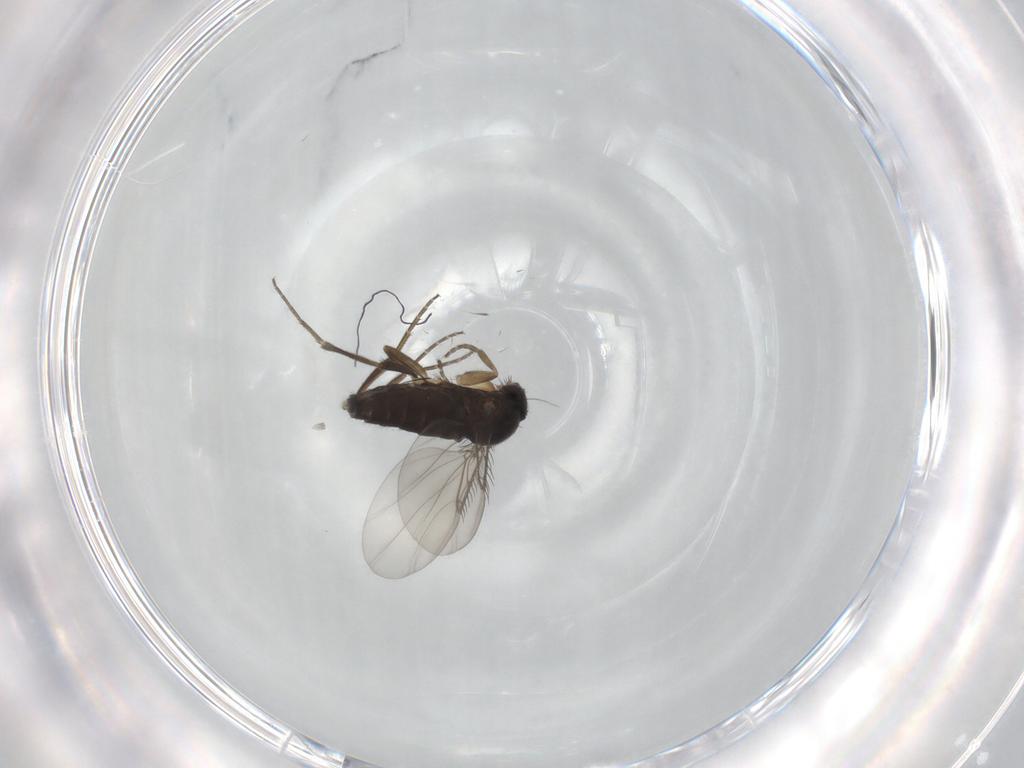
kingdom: Animalia
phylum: Arthropoda
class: Insecta
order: Diptera
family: Phoridae
